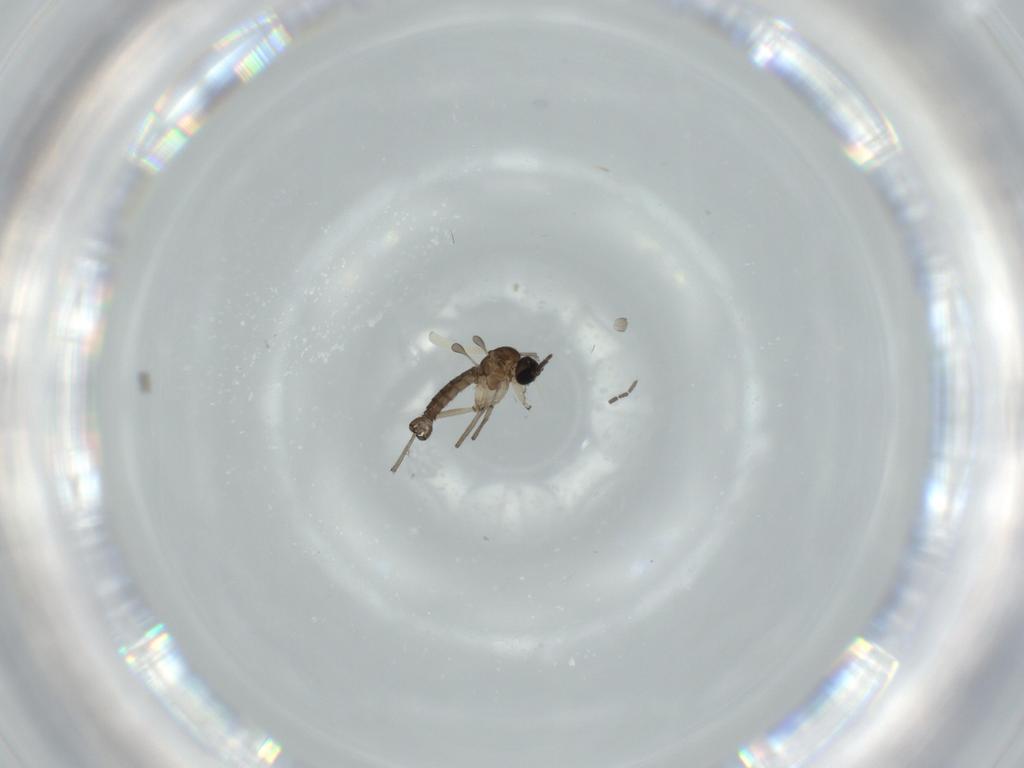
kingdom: Animalia
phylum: Arthropoda
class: Insecta
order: Diptera
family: Sciaridae
